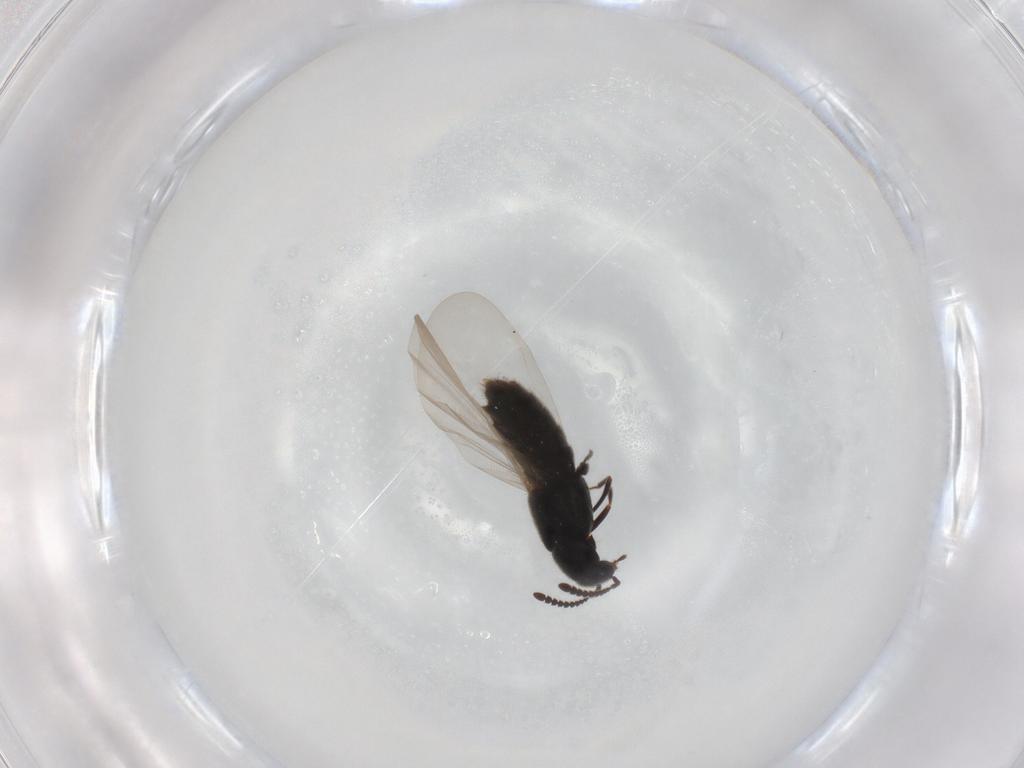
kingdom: Animalia
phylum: Arthropoda
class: Insecta
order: Coleoptera
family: Staphylinidae
